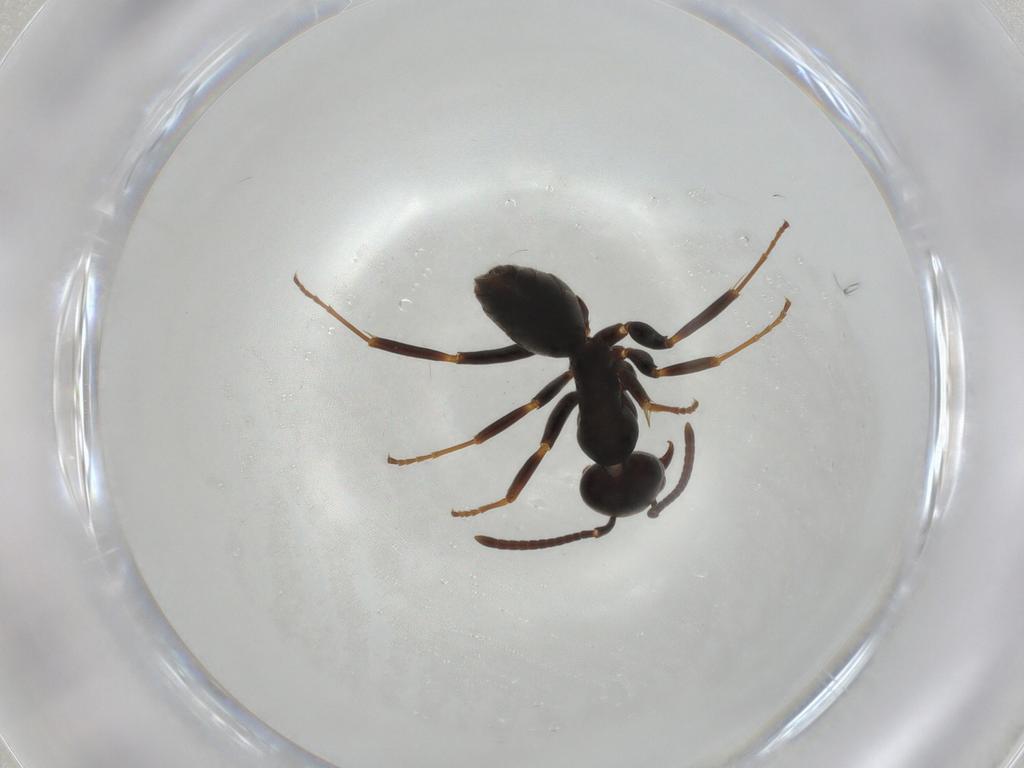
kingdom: Animalia
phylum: Arthropoda
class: Insecta
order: Hymenoptera
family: Formicidae
